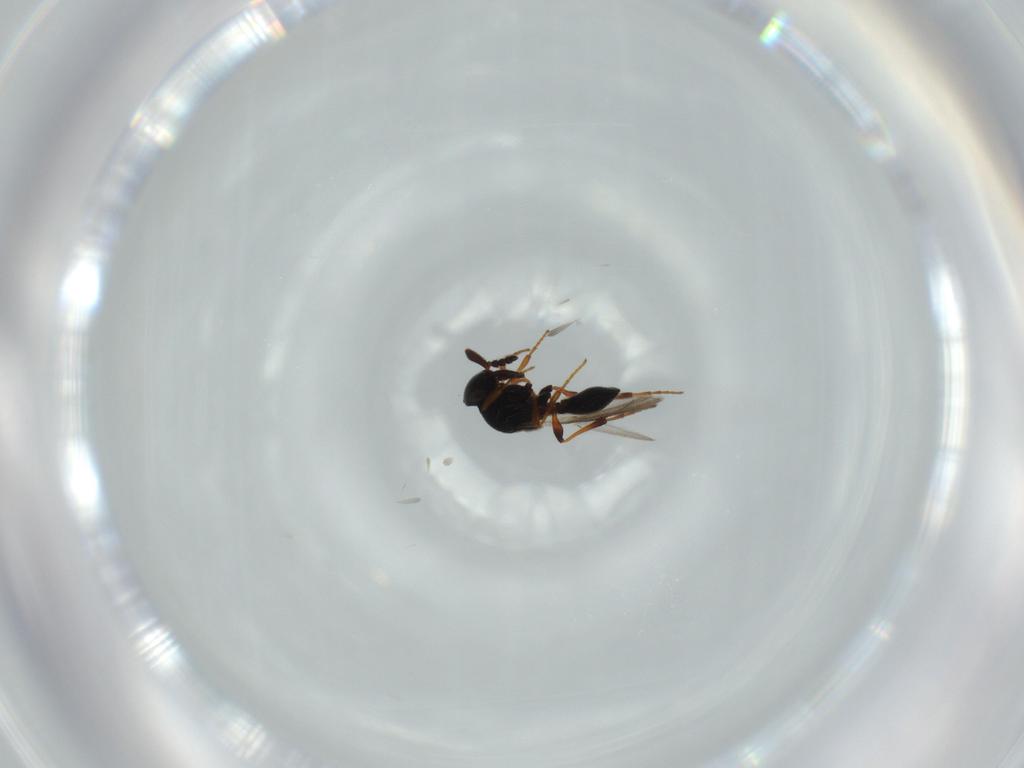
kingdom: Animalia
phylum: Arthropoda
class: Insecta
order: Hymenoptera
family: Platygastridae
